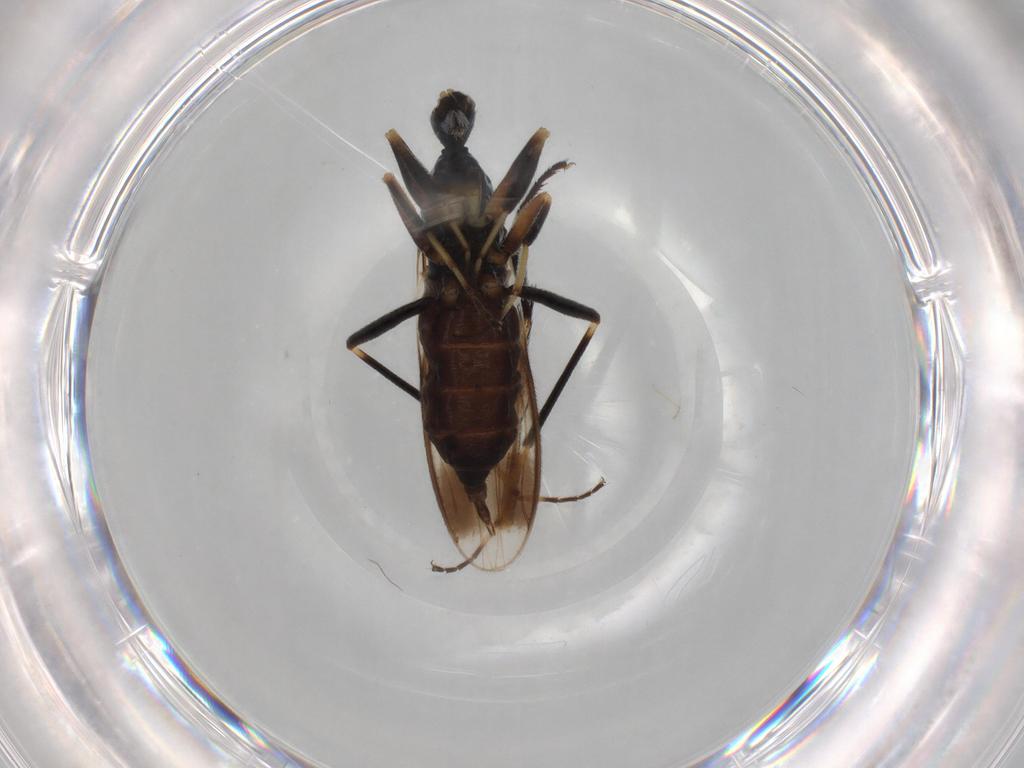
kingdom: Animalia
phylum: Arthropoda
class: Insecta
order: Diptera
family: Hybotidae
